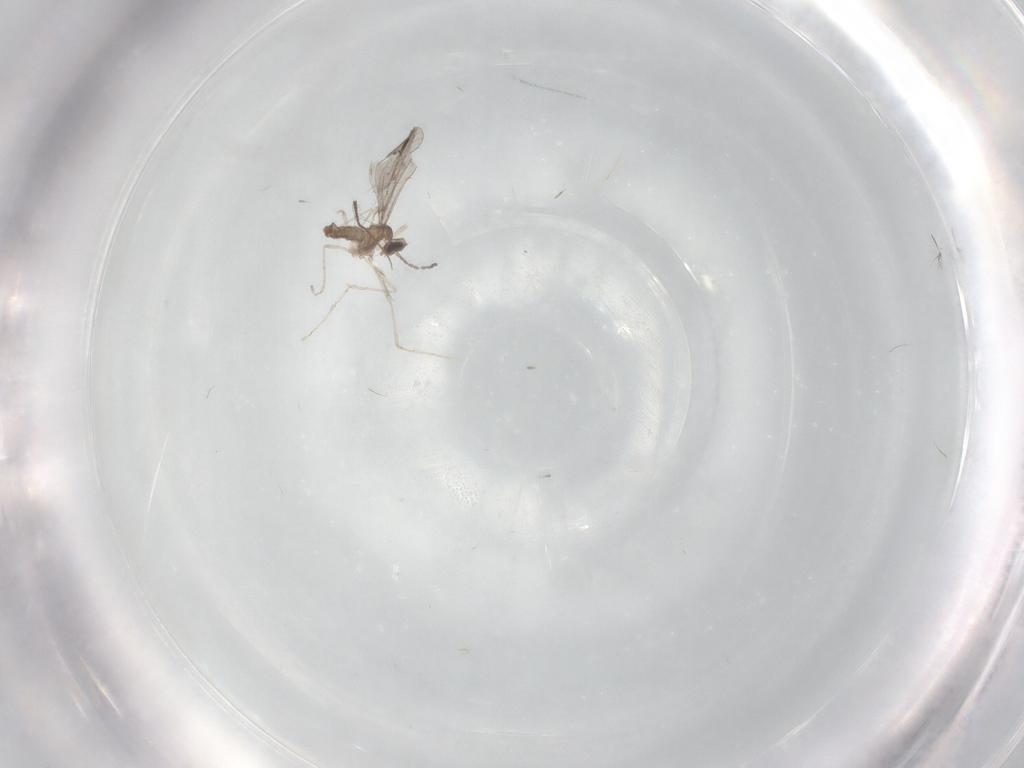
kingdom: Animalia
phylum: Arthropoda
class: Insecta
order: Diptera
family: Cecidomyiidae
